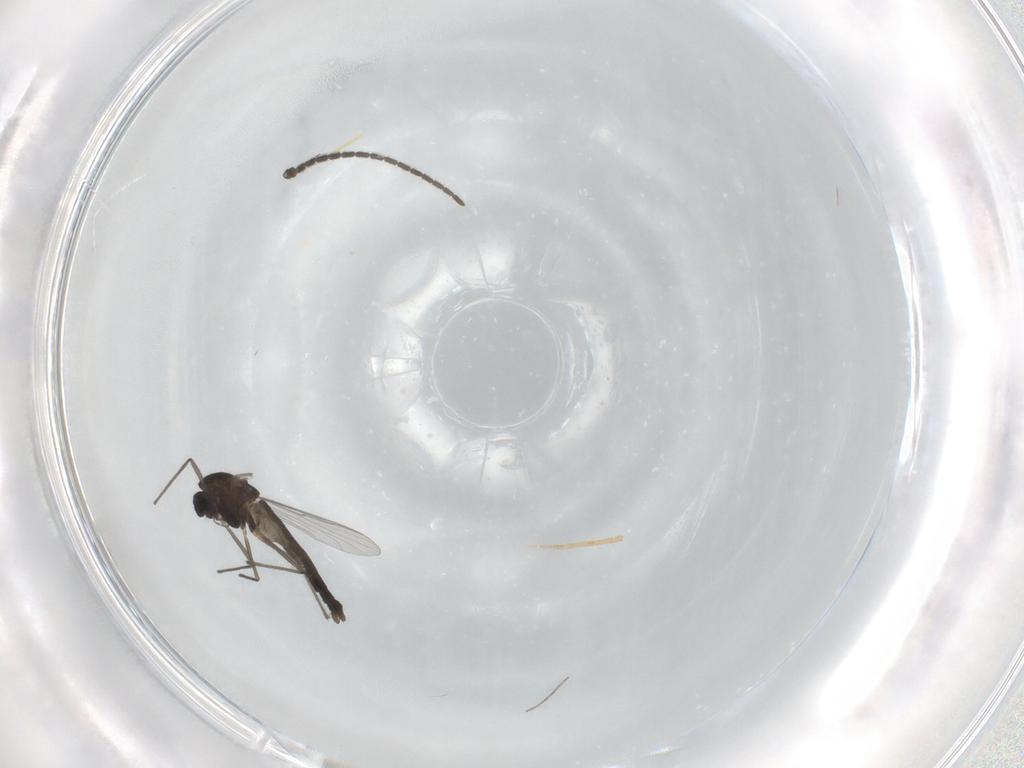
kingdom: Animalia
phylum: Arthropoda
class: Insecta
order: Diptera
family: Chironomidae
